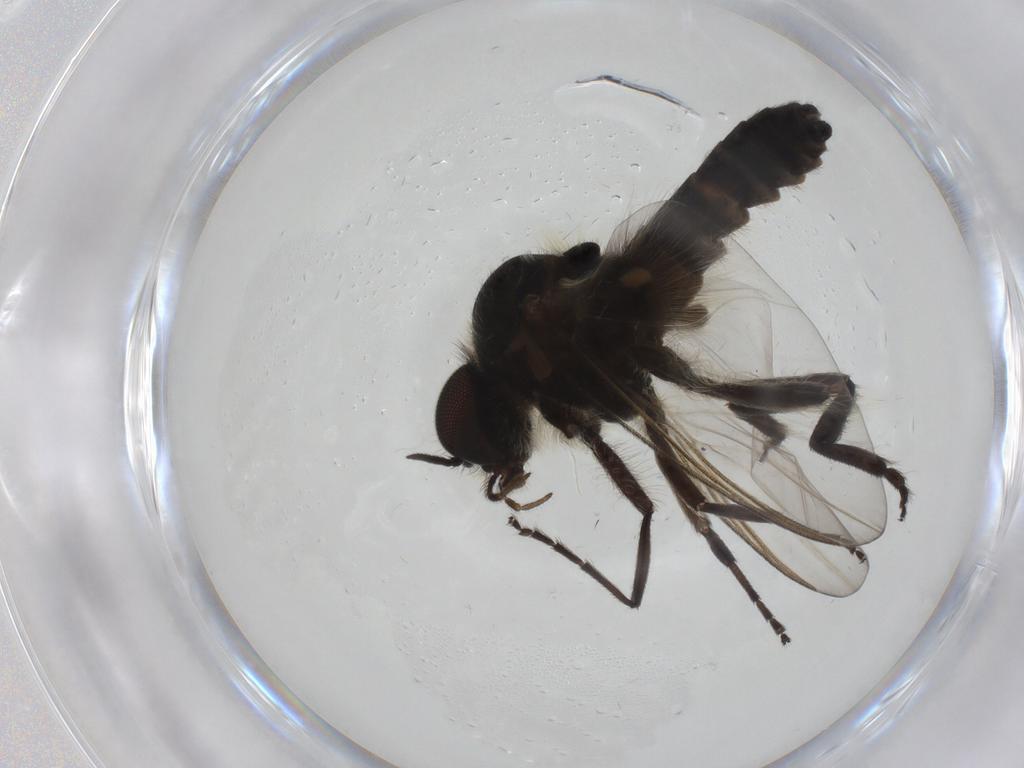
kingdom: Animalia
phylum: Arthropoda
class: Insecta
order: Diptera
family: Simuliidae
